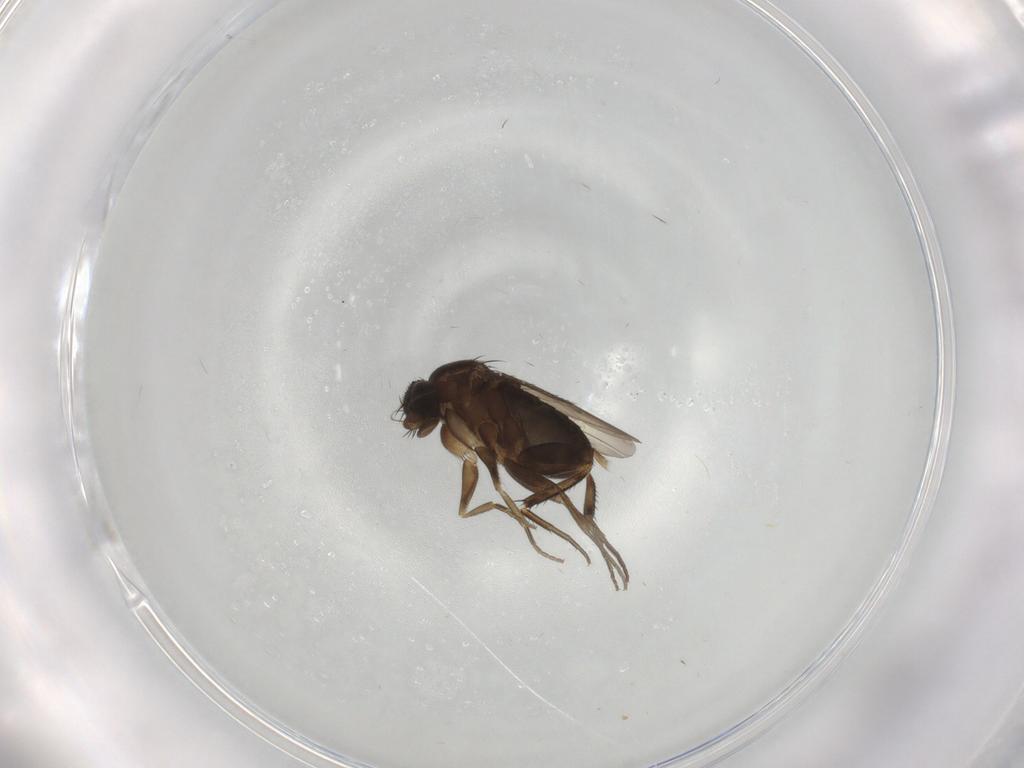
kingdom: Animalia
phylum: Arthropoda
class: Insecta
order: Diptera
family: Phoridae
